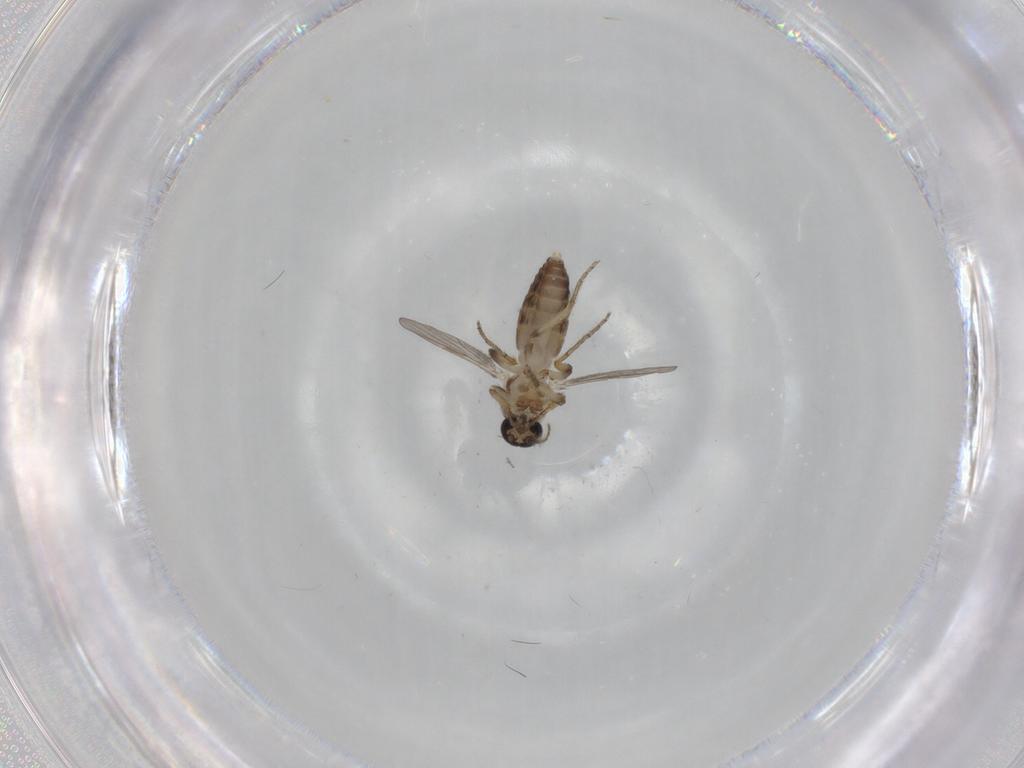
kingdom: Animalia
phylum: Arthropoda
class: Insecta
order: Diptera
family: Ceratopogonidae
